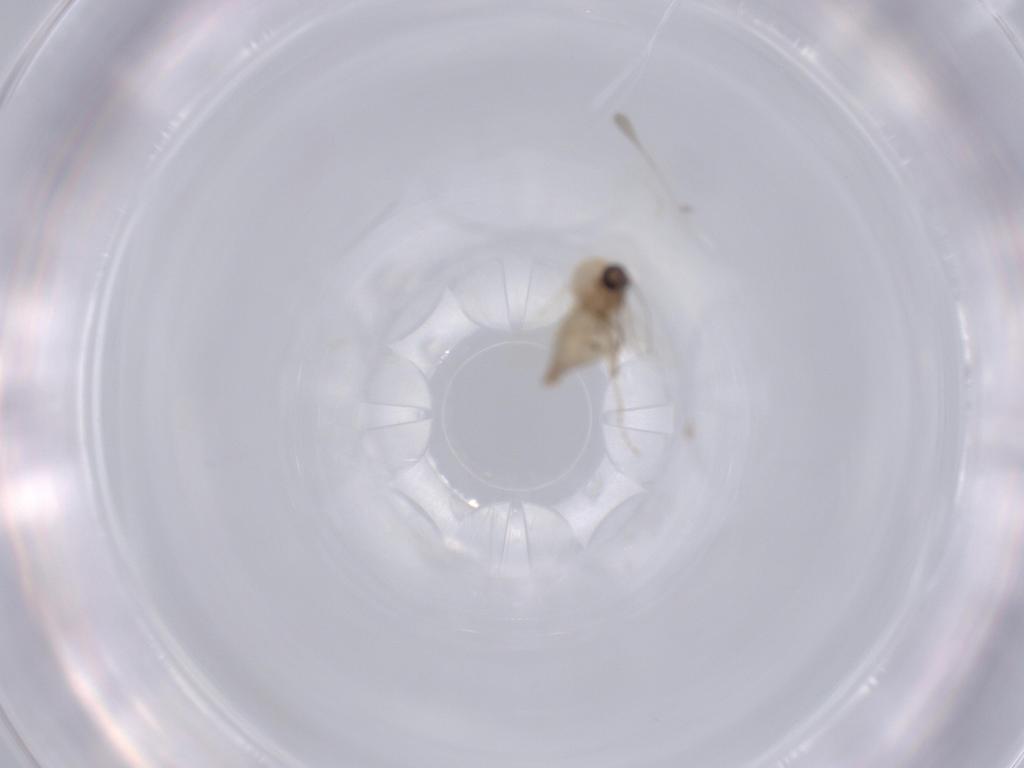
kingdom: Animalia
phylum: Arthropoda
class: Insecta
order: Diptera
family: Ceratopogonidae
